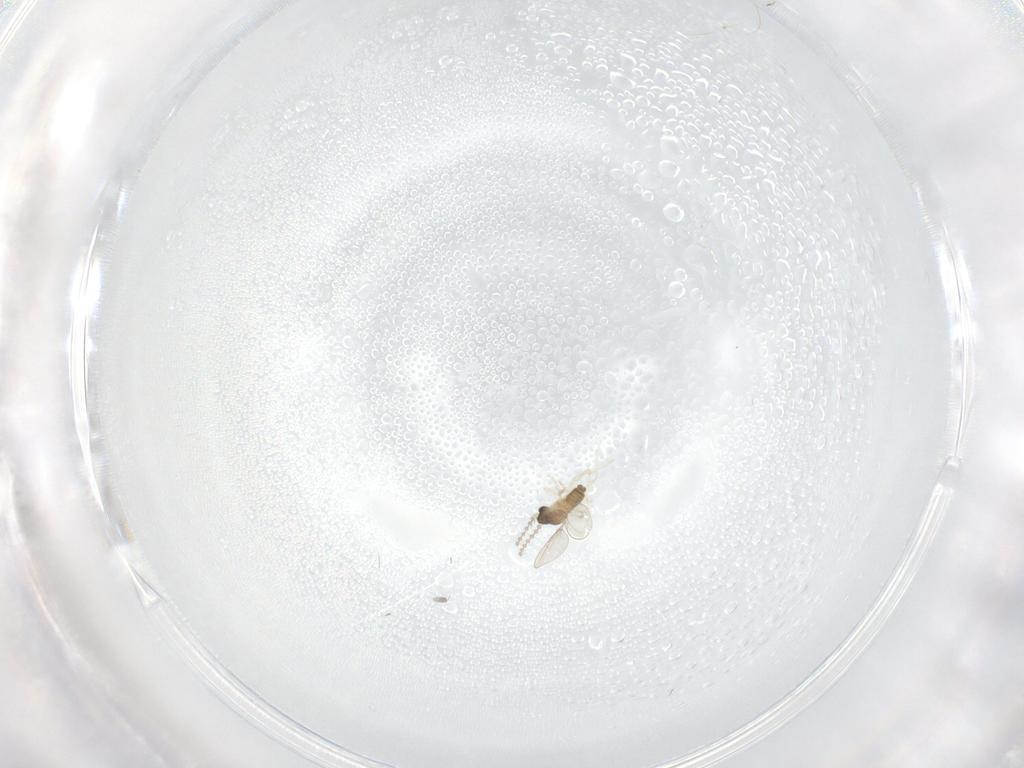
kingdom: Animalia
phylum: Arthropoda
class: Insecta
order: Diptera
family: Cecidomyiidae
